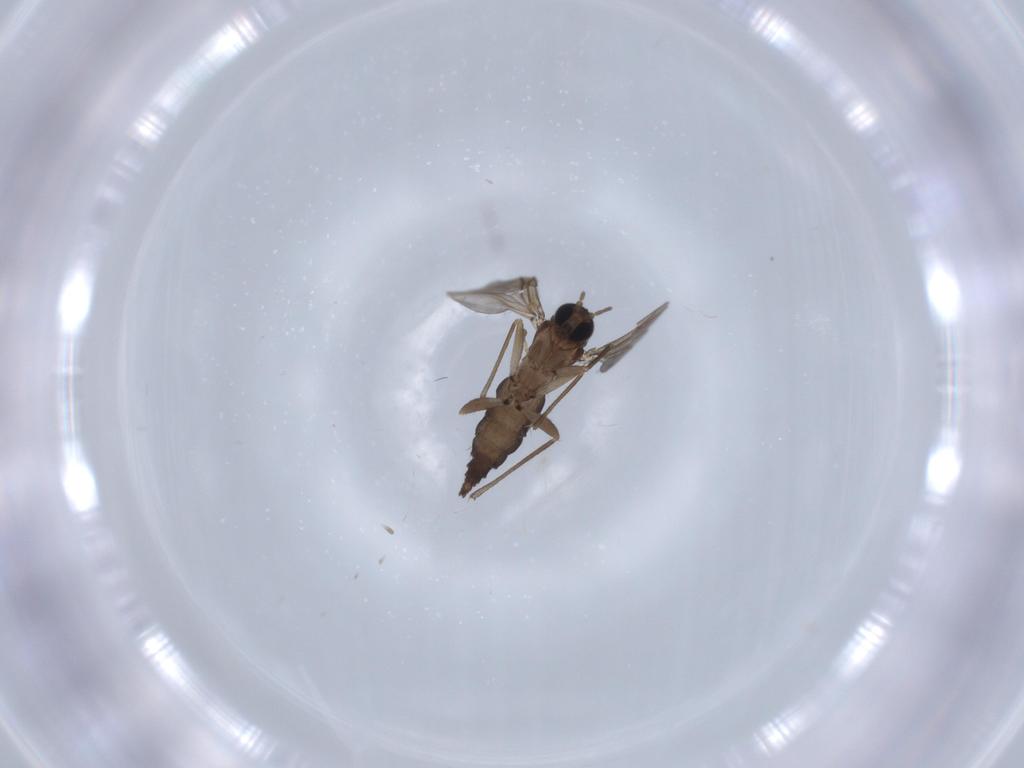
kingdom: Animalia
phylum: Arthropoda
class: Insecta
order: Diptera
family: Sciaridae
